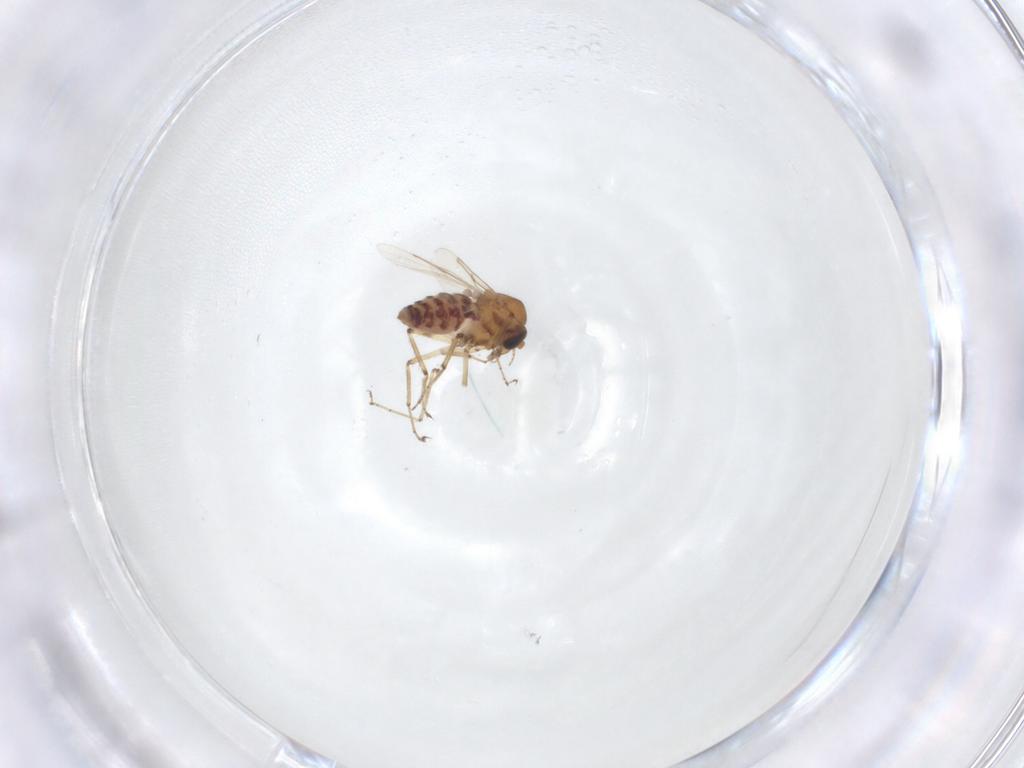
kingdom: Animalia
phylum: Arthropoda
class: Insecta
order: Diptera
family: Ceratopogonidae
